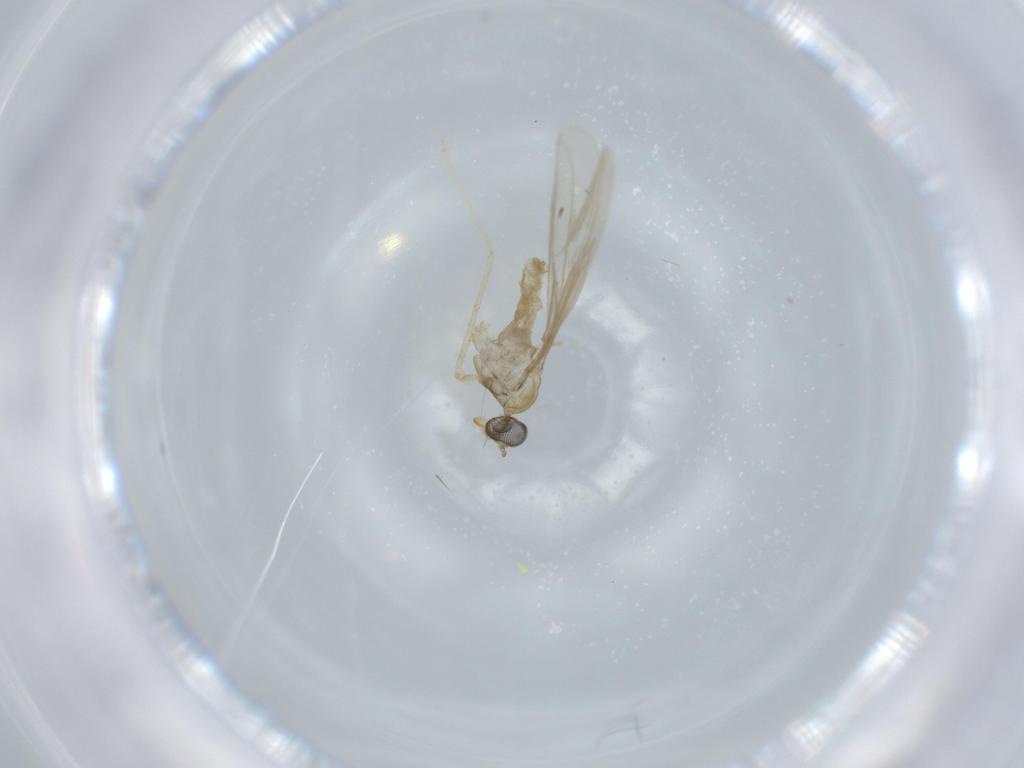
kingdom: Animalia
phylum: Arthropoda
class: Insecta
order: Diptera
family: Cecidomyiidae
